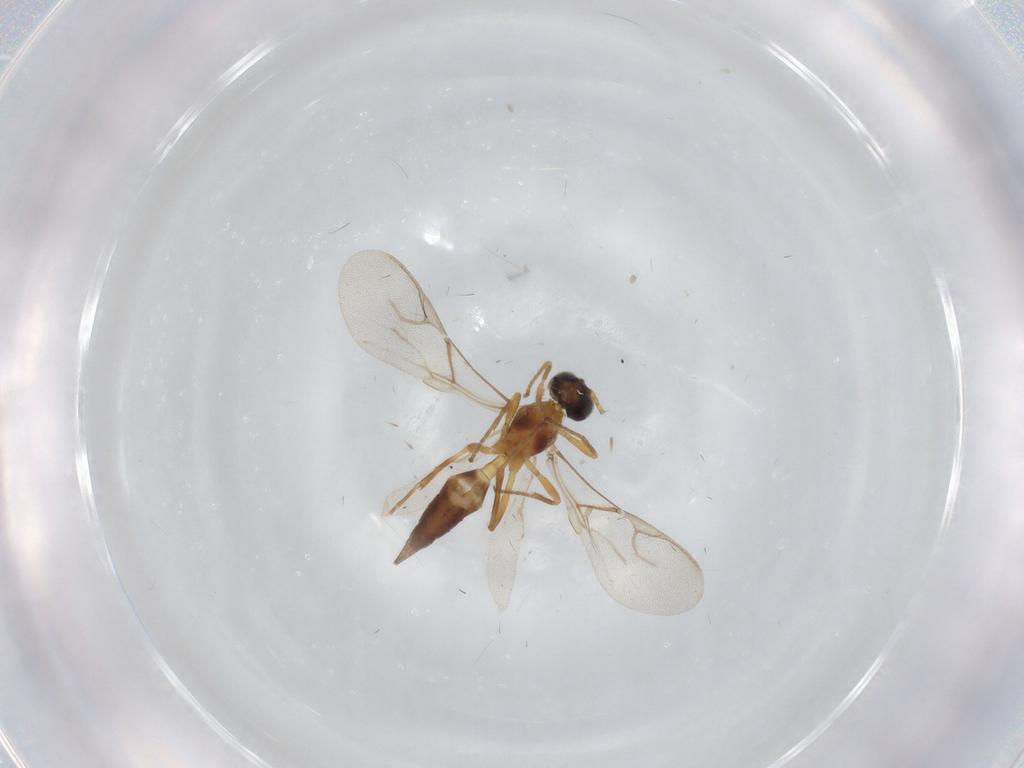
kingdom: Animalia
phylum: Arthropoda
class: Insecta
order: Hymenoptera
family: Braconidae
